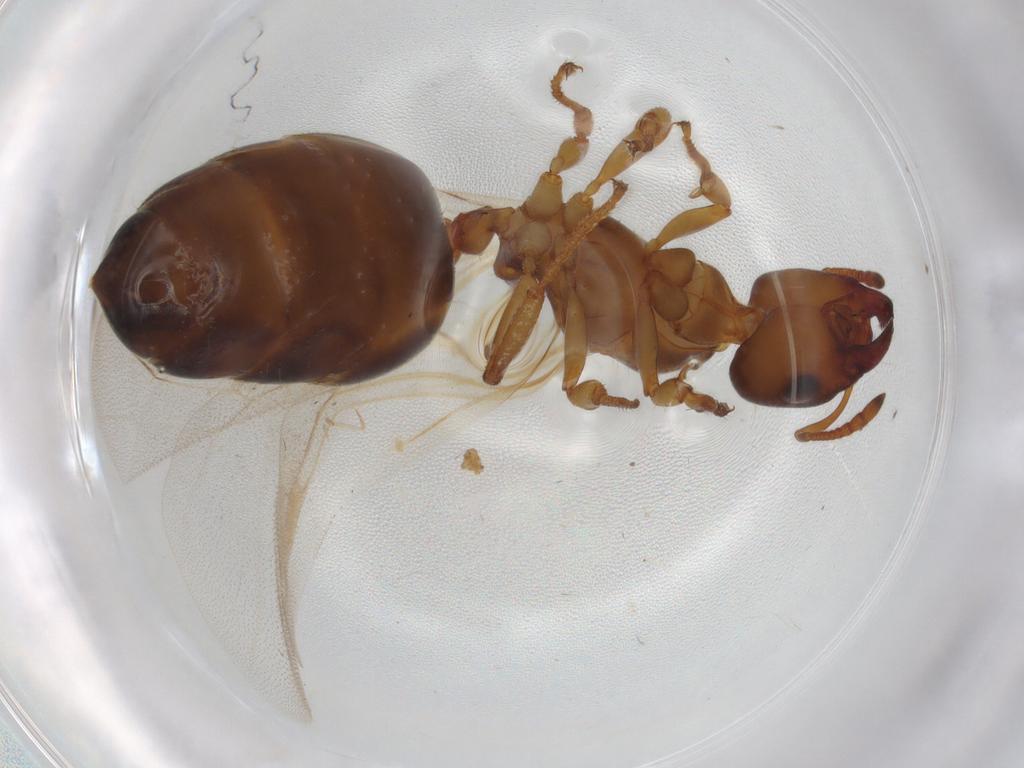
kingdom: Animalia
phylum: Arthropoda
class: Insecta
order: Hymenoptera
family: Formicidae
